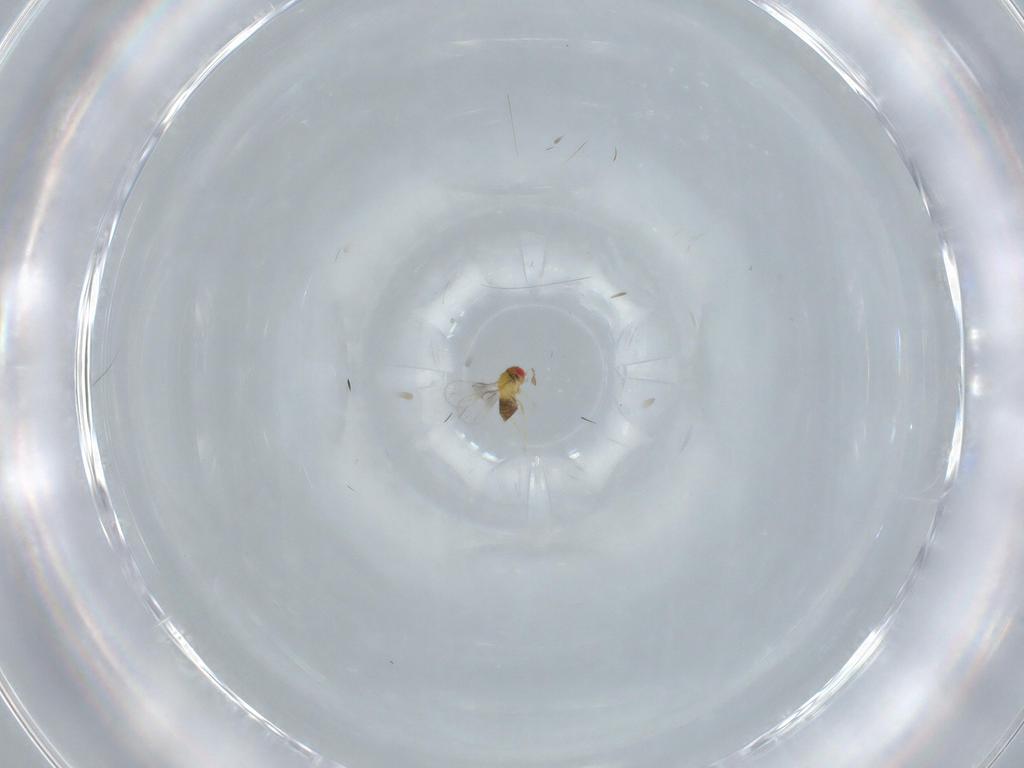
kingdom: Animalia
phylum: Arthropoda
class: Insecta
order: Hymenoptera
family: Trichogrammatidae
